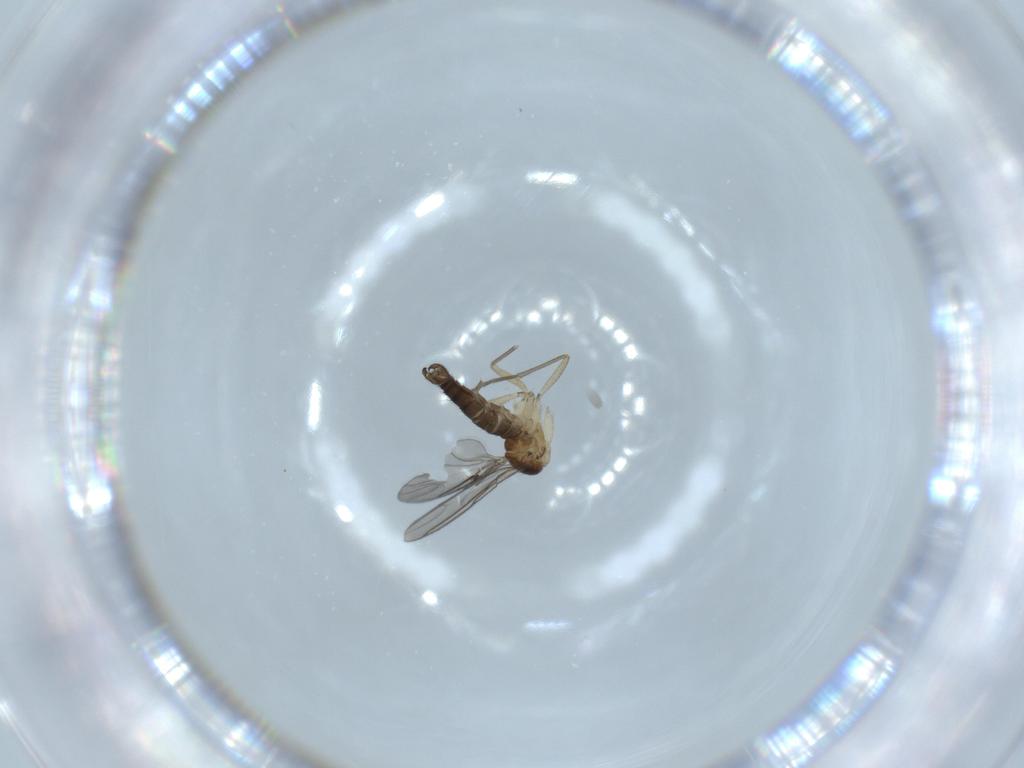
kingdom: Animalia
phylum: Arthropoda
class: Insecta
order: Diptera
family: Sciaridae
